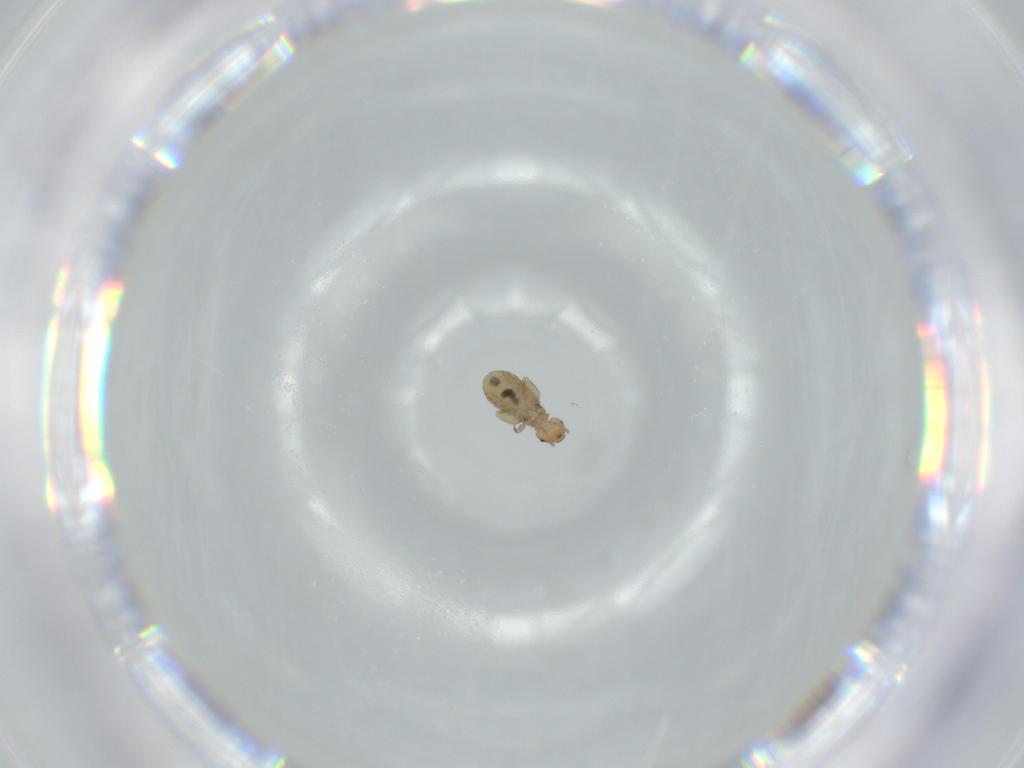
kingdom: Animalia
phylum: Arthropoda
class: Insecta
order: Psocodea
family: Liposcelididae
